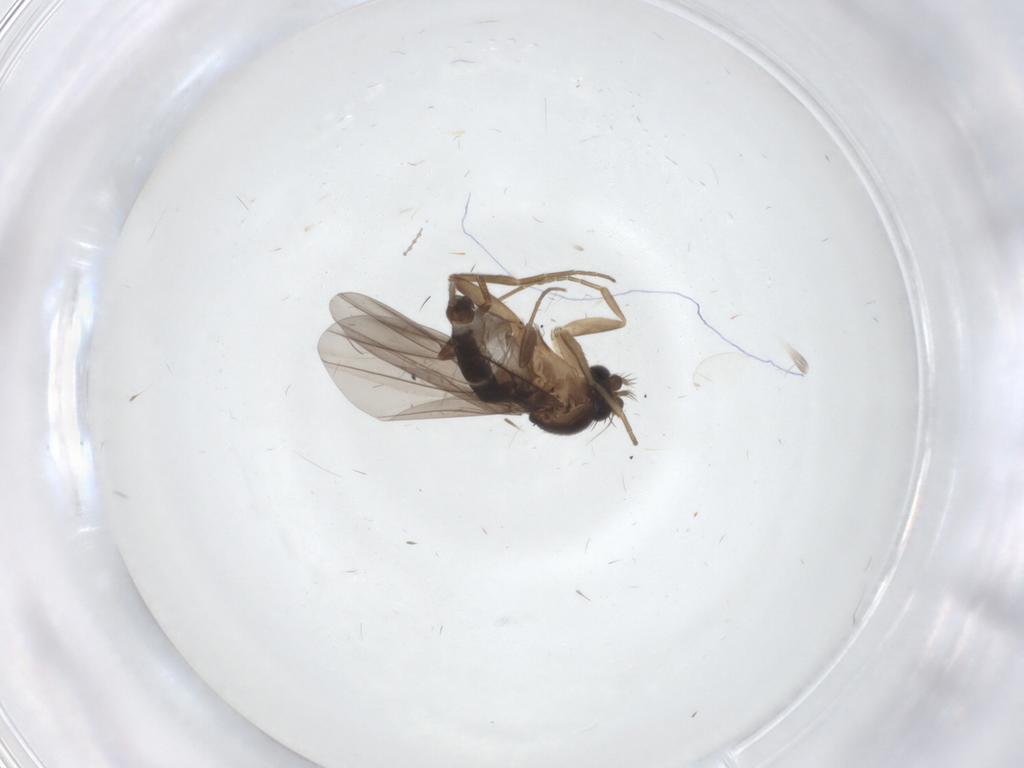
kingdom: Animalia
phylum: Arthropoda
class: Insecta
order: Diptera
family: Phoridae
